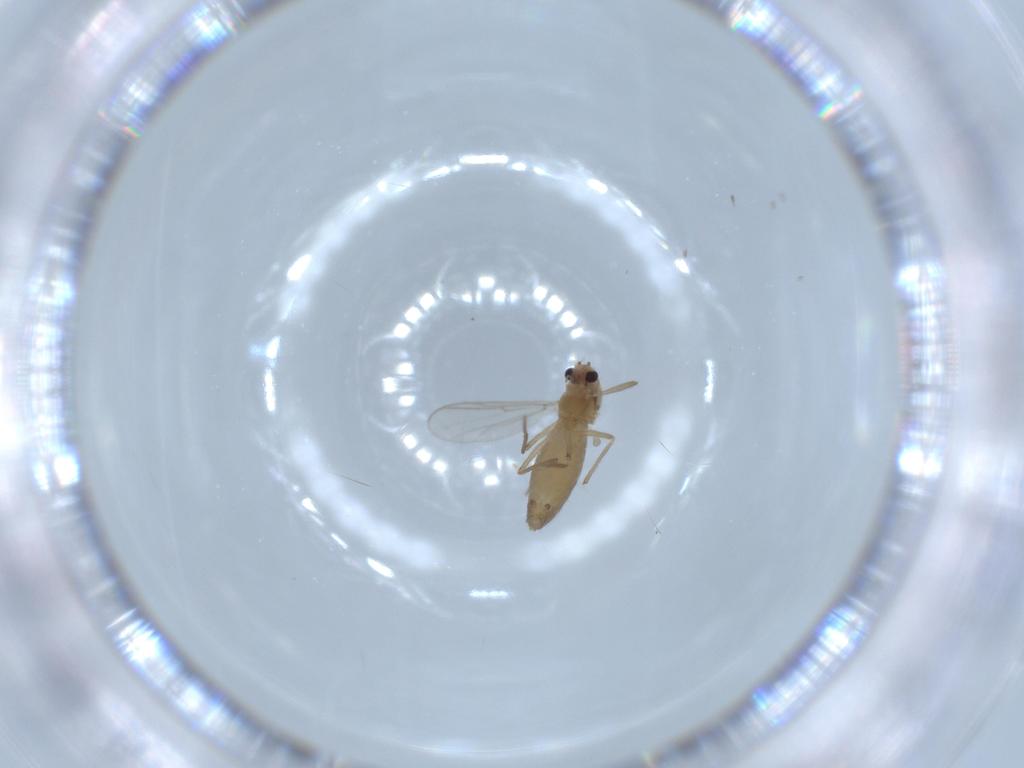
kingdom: Animalia
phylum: Arthropoda
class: Insecta
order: Diptera
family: Chironomidae
